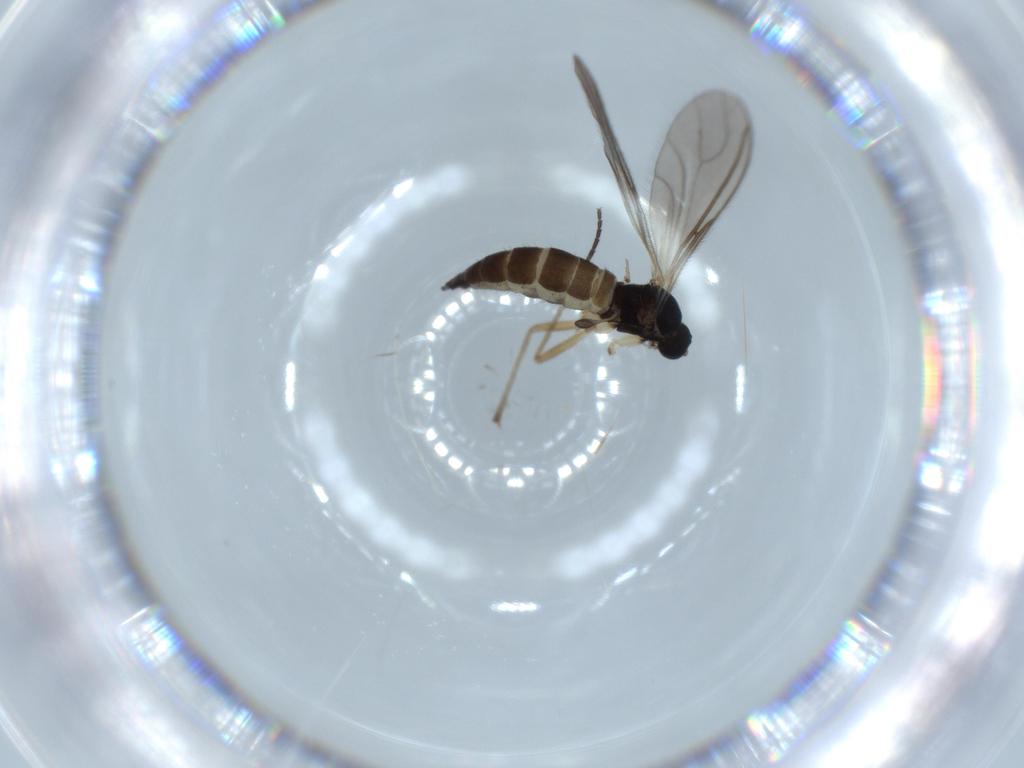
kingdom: Animalia
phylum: Arthropoda
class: Insecta
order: Diptera
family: Sciaridae
